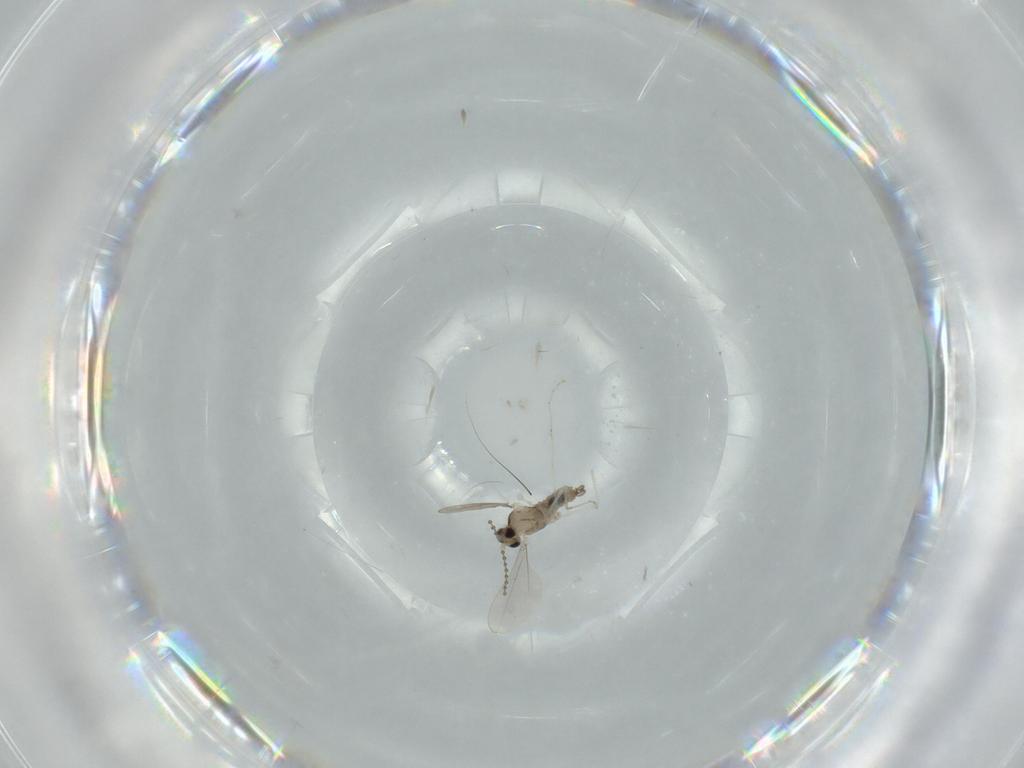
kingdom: Animalia
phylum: Arthropoda
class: Insecta
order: Diptera
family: Cecidomyiidae
